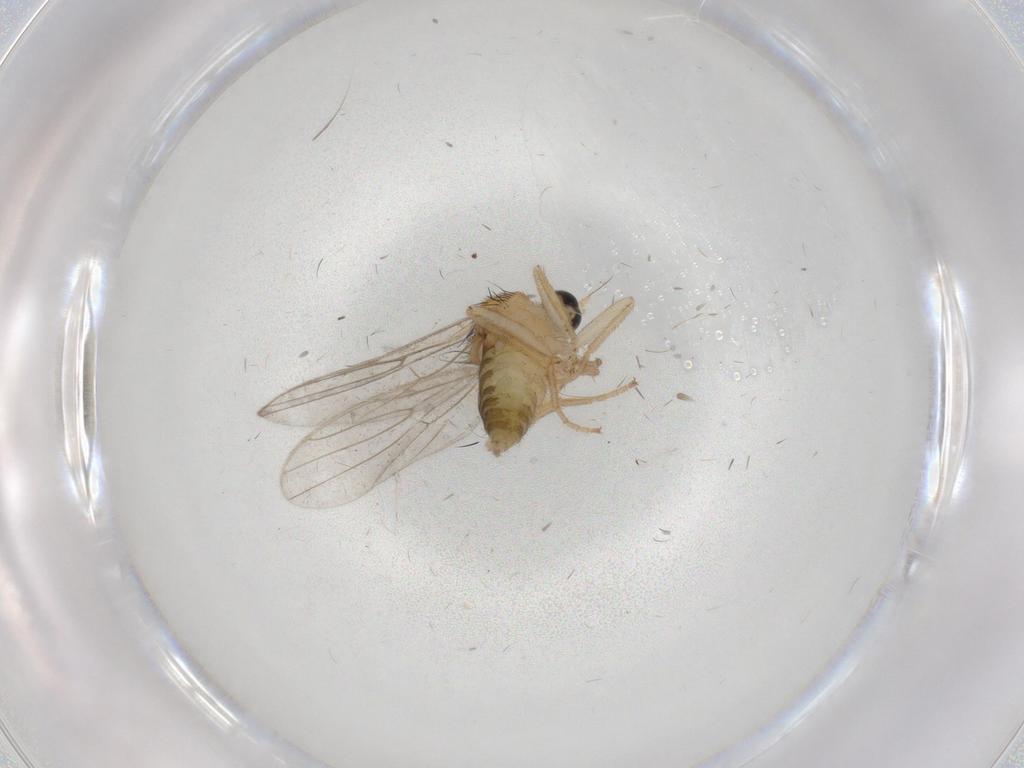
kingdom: Animalia
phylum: Arthropoda
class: Insecta
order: Diptera
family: Hybotidae
